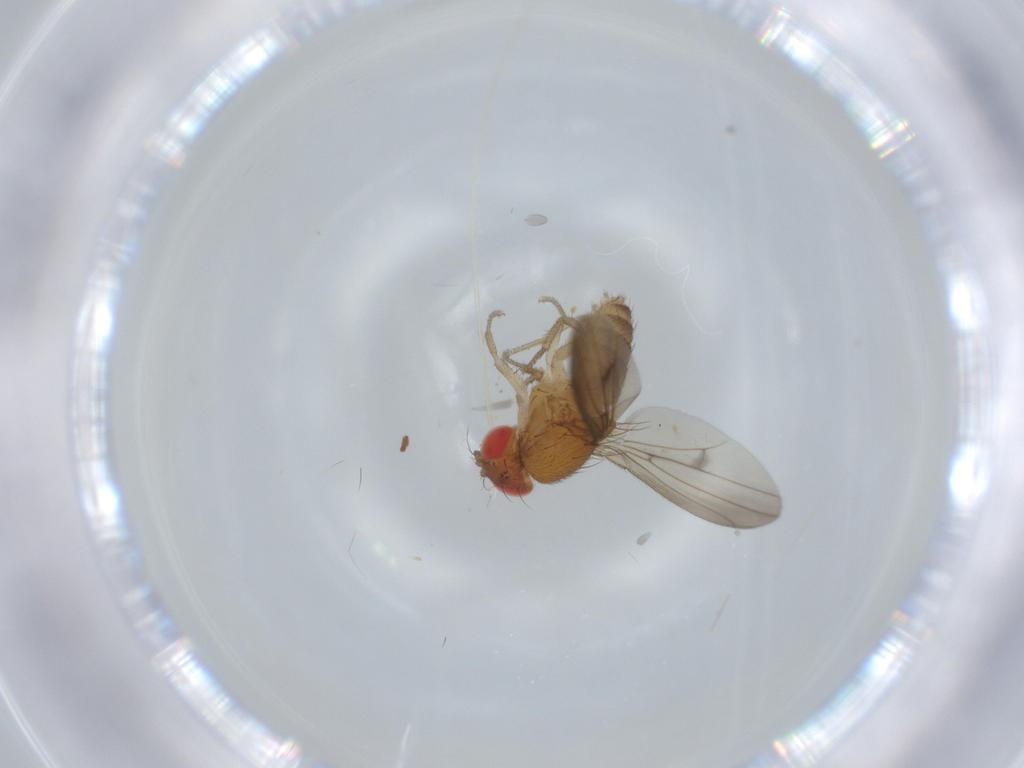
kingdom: Animalia
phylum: Arthropoda
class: Insecta
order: Diptera
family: Drosophilidae
